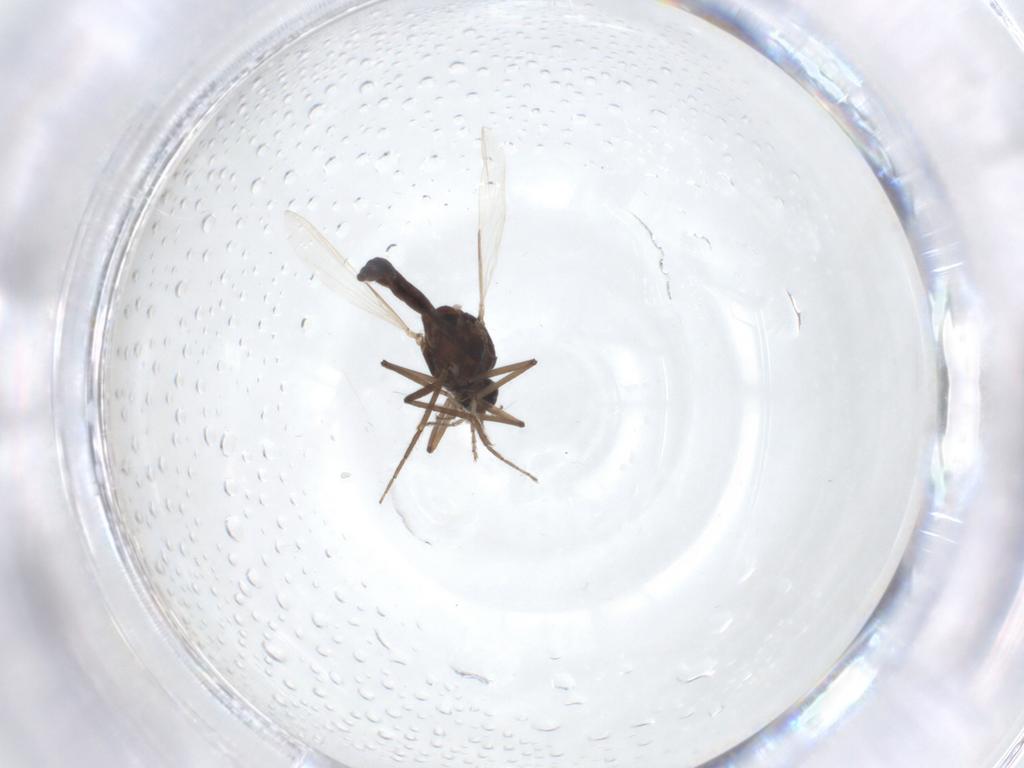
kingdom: Animalia
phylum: Arthropoda
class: Insecta
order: Diptera
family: Ceratopogonidae
